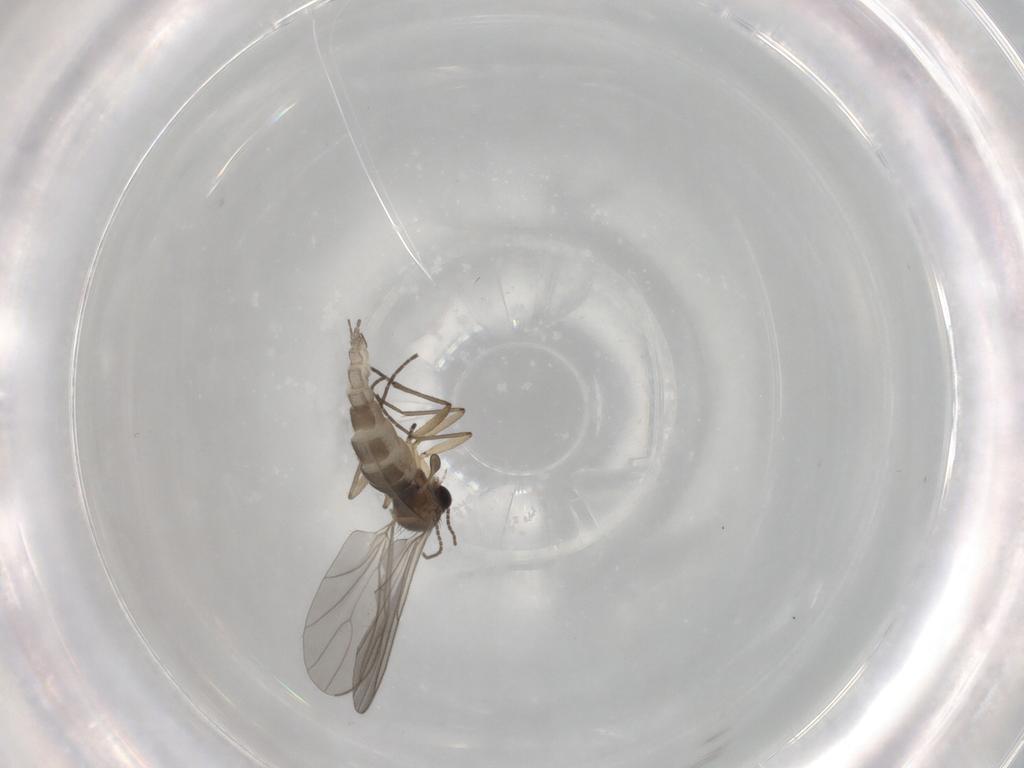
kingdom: Animalia
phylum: Arthropoda
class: Insecta
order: Diptera
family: Sciaridae
